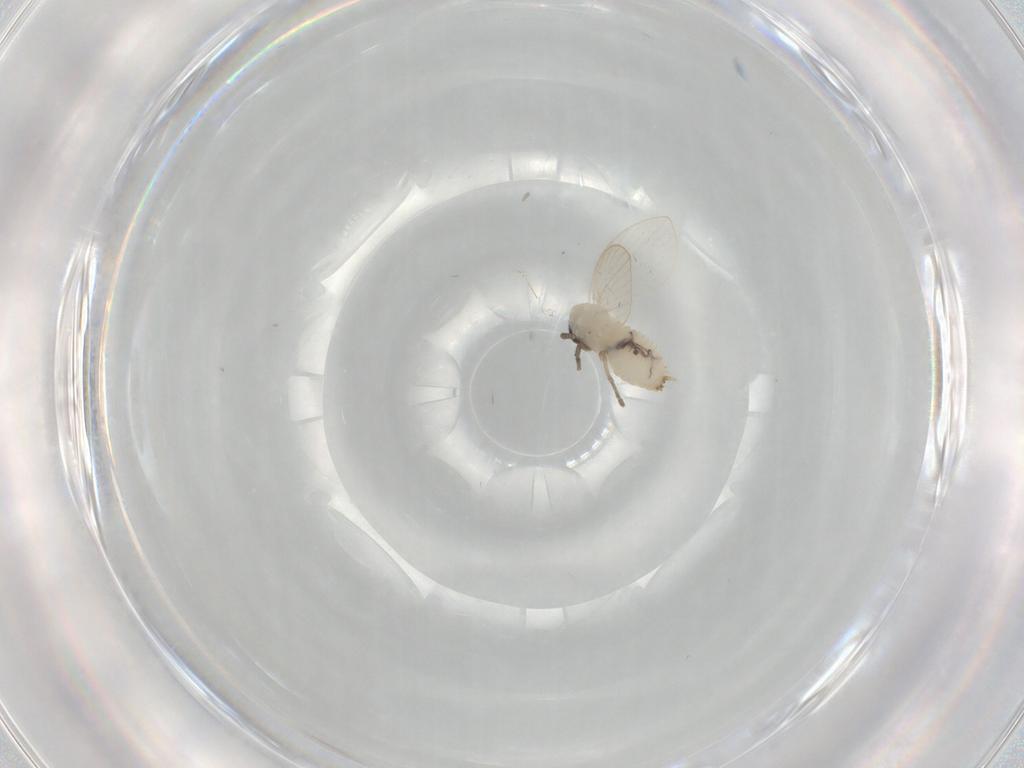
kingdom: Animalia
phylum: Arthropoda
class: Insecta
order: Diptera
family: Psychodidae
